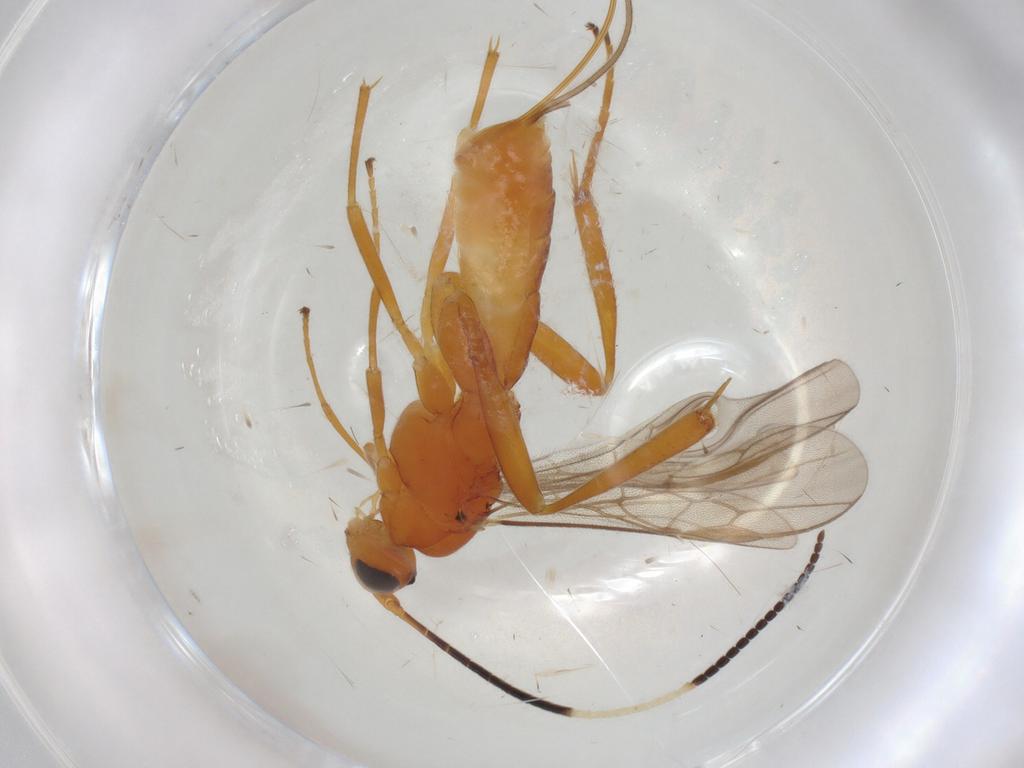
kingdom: Animalia
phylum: Arthropoda
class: Insecta
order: Hymenoptera
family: Braconidae
